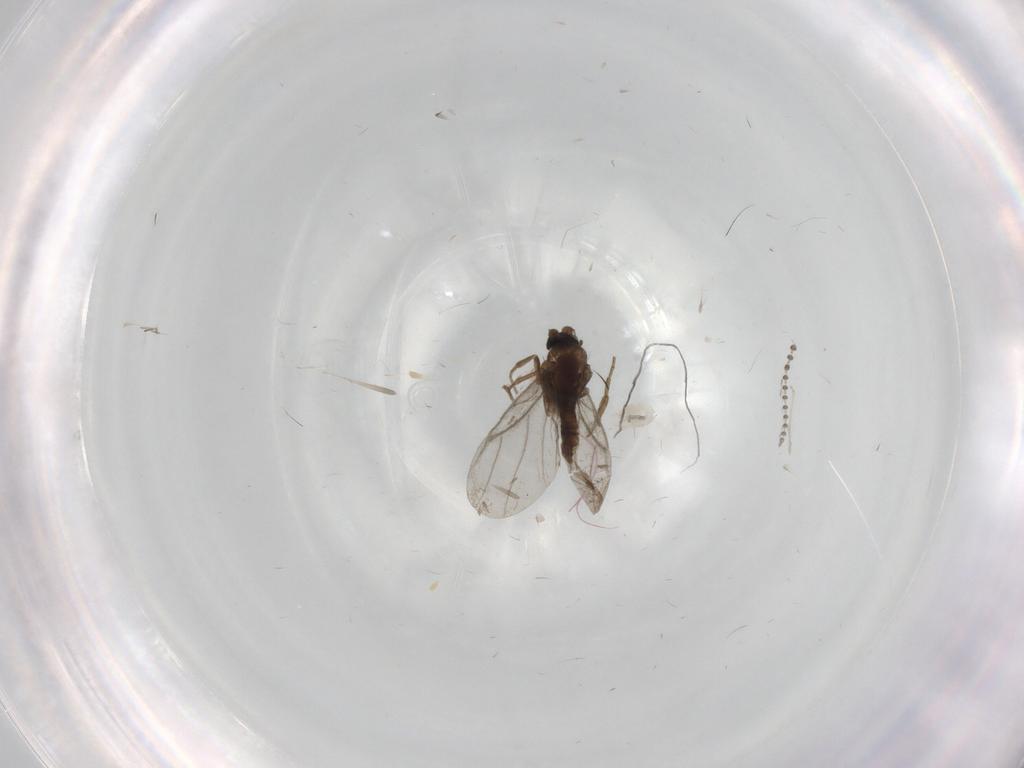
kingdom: Animalia
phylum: Arthropoda
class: Insecta
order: Diptera
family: Psychodidae
